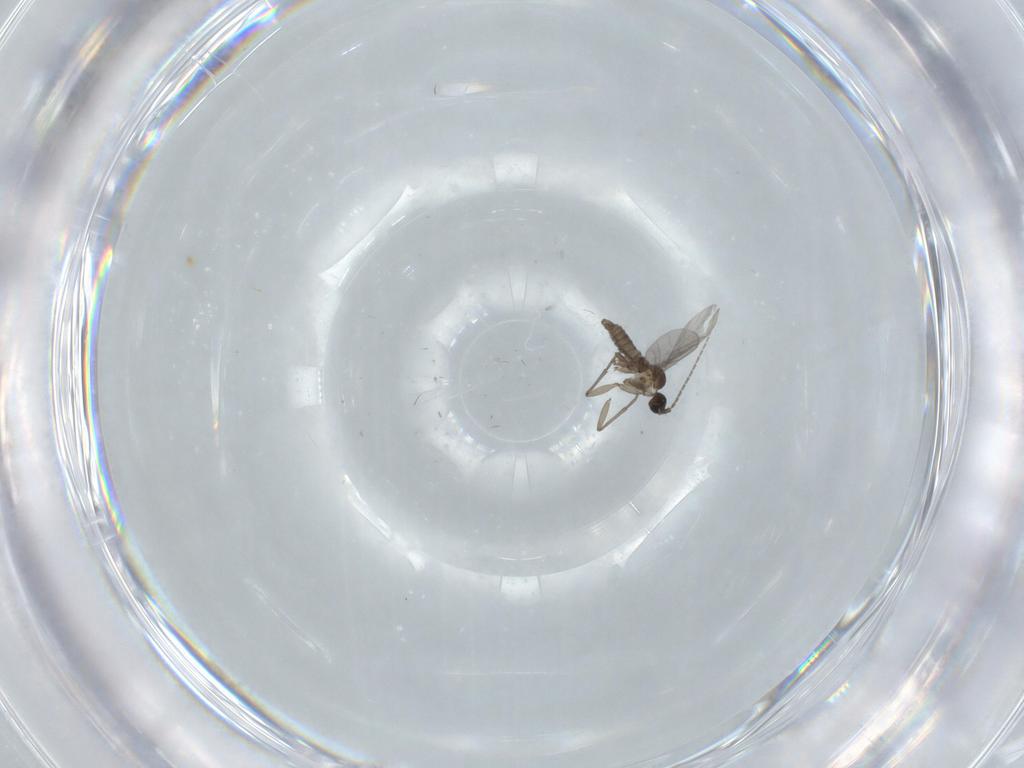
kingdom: Animalia
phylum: Arthropoda
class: Insecta
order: Diptera
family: Sciaridae
